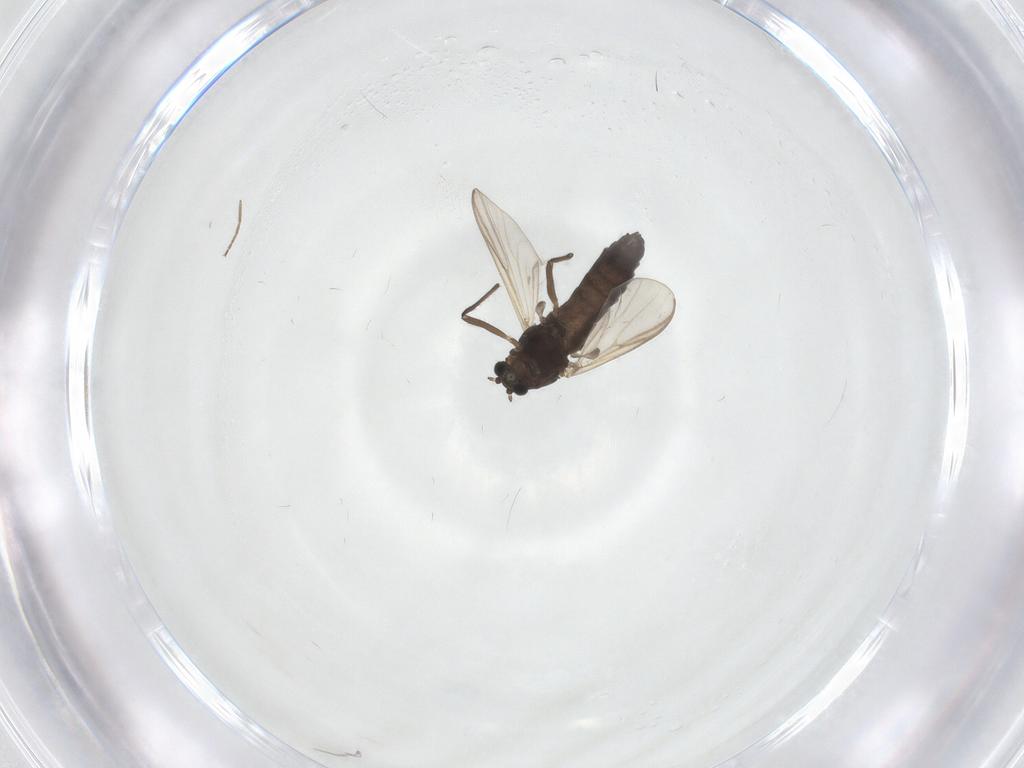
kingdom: Animalia
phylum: Arthropoda
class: Insecta
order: Diptera
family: Chironomidae
